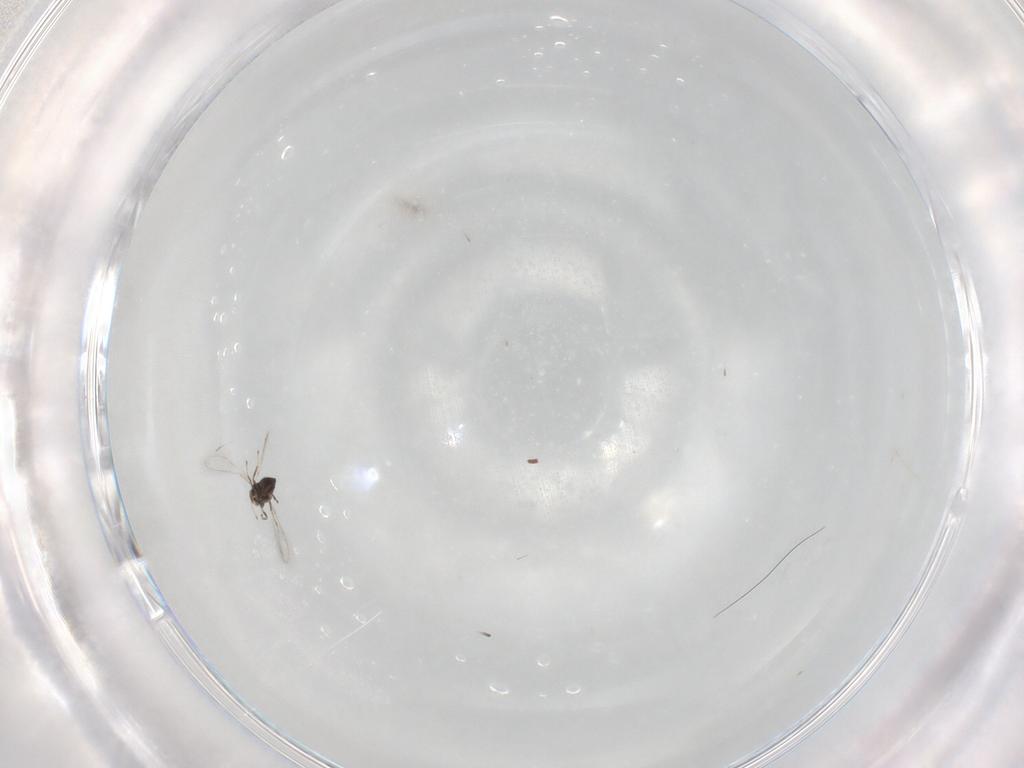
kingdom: Animalia
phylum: Arthropoda
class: Insecta
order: Hymenoptera
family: Mymaridae
